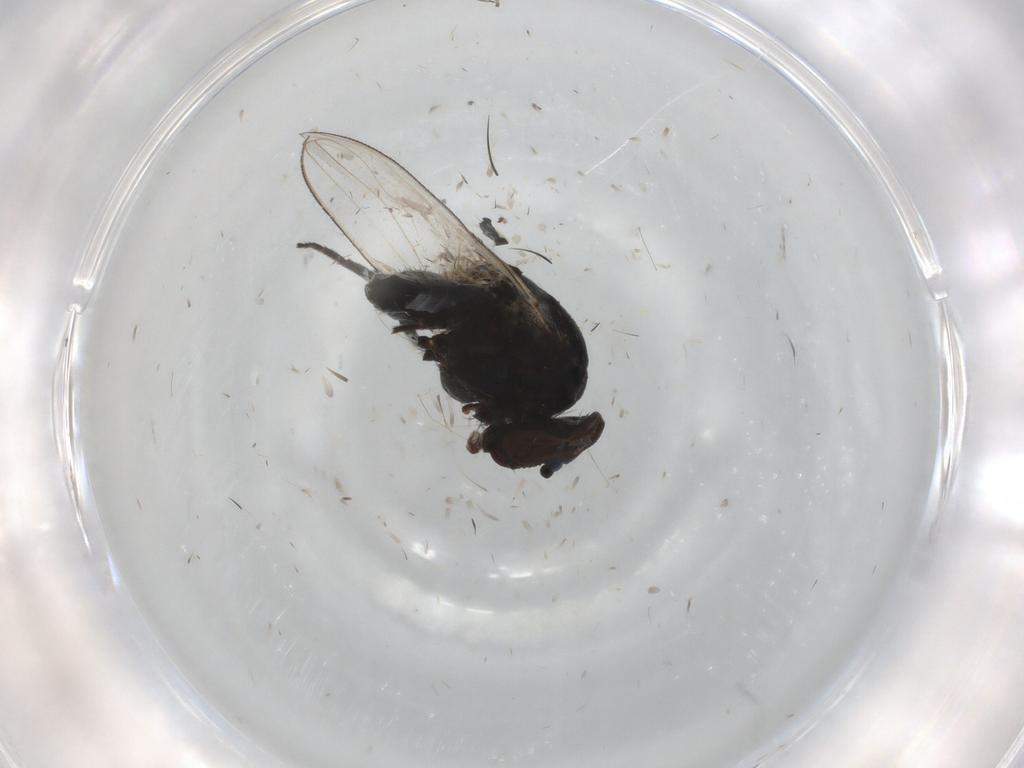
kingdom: Animalia
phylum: Arthropoda
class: Insecta
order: Diptera
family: Milichiidae
